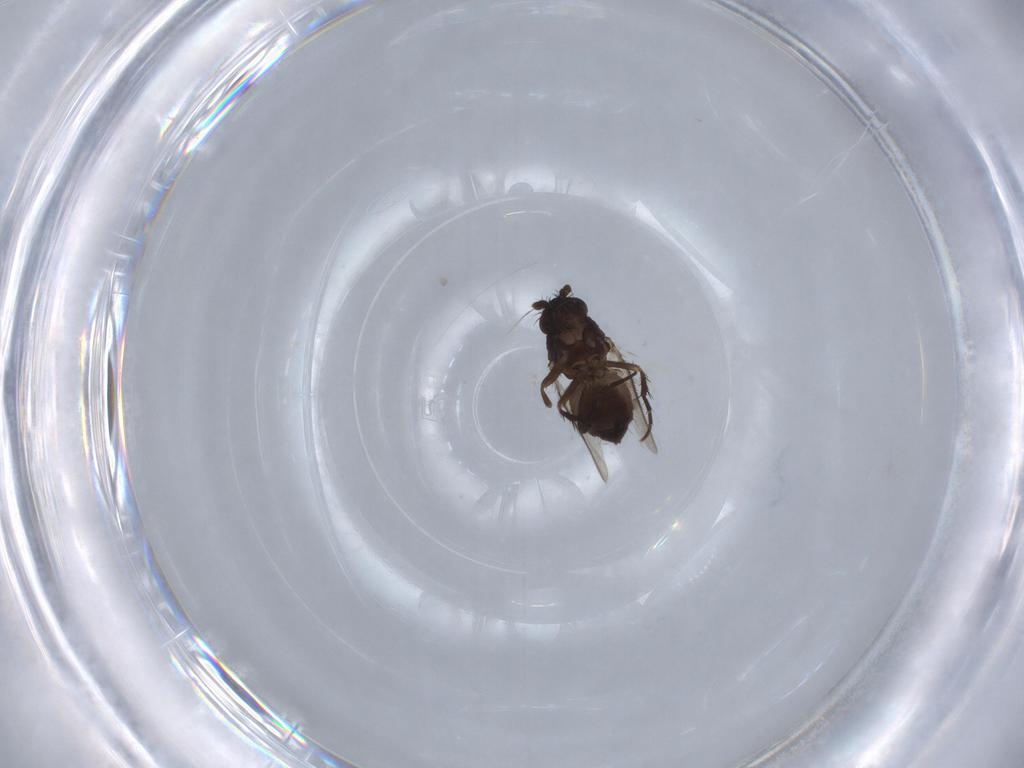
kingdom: Animalia
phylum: Arthropoda
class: Insecta
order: Diptera
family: Sphaeroceridae
